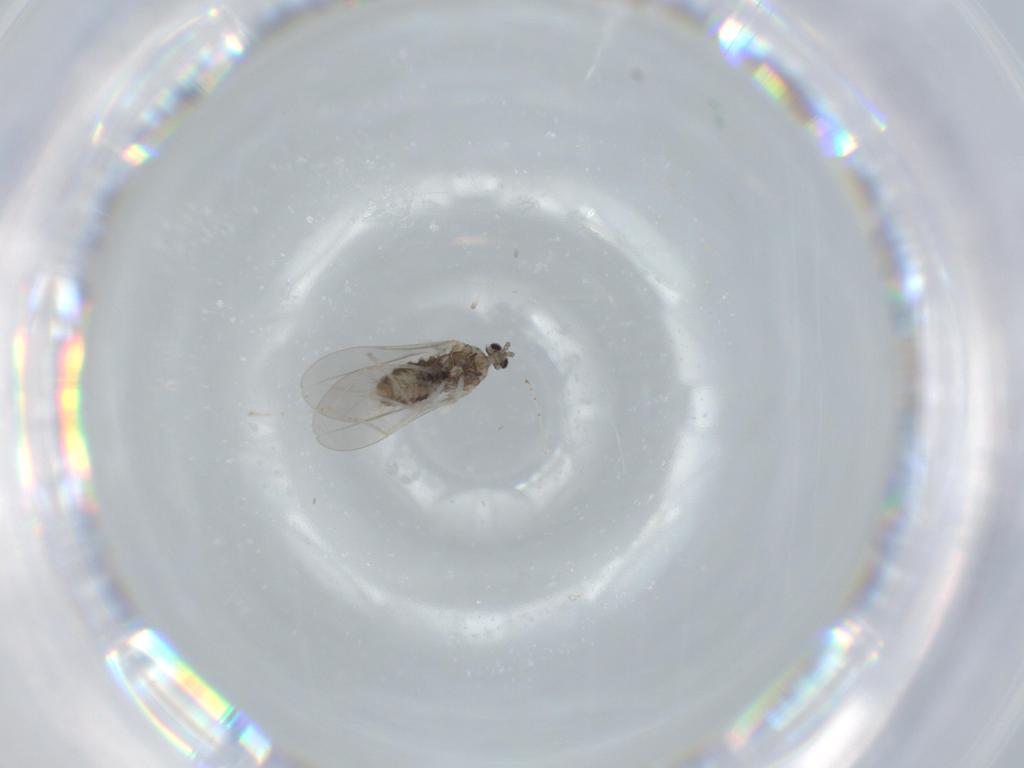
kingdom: Animalia
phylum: Arthropoda
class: Insecta
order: Diptera
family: Cecidomyiidae
